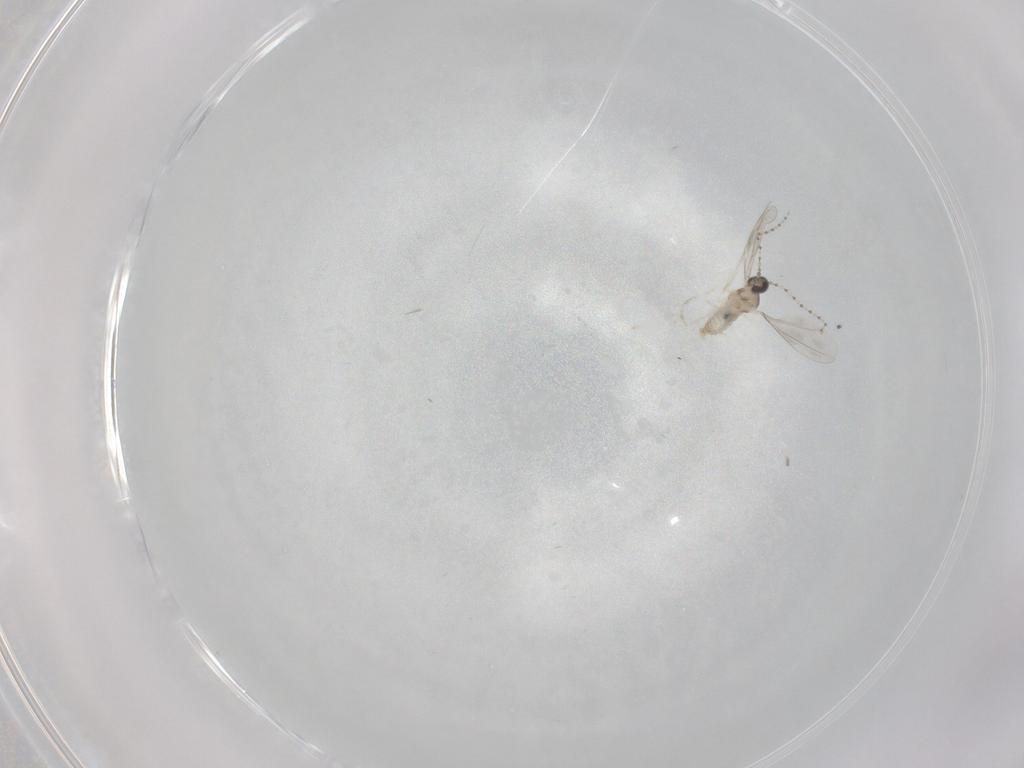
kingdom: Animalia
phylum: Arthropoda
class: Insecta
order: Diptera
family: Cecidomyiidae
